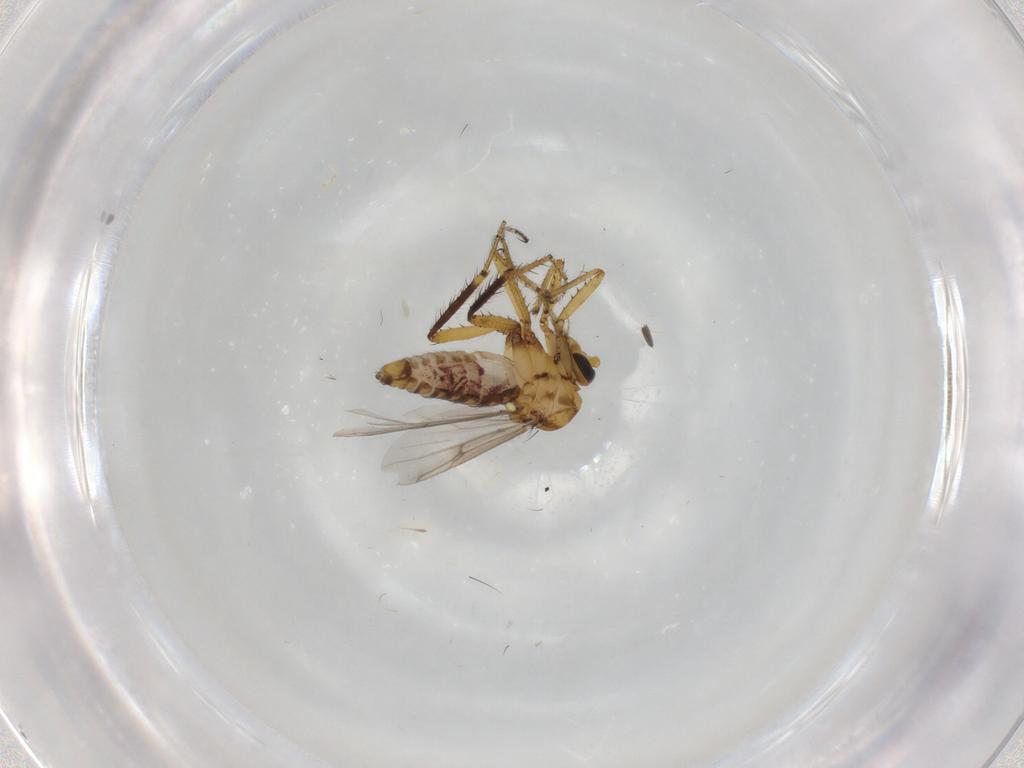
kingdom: Animalia
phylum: Arthropoda
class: Insecta
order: Diptera
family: Ceratopogonidae
